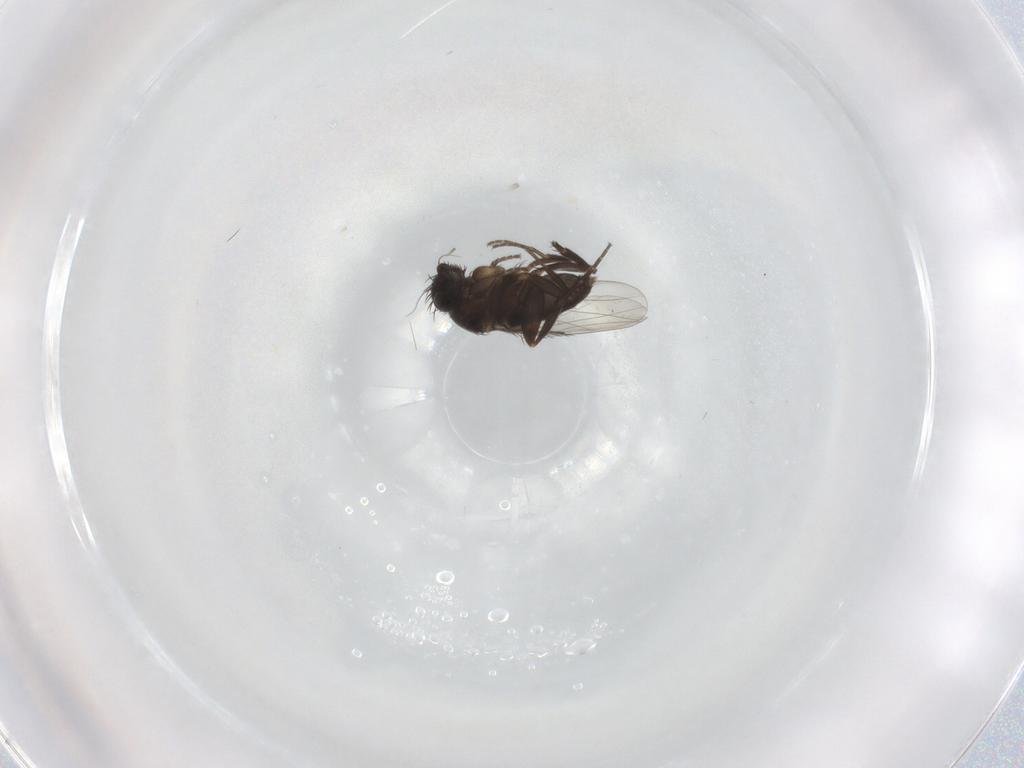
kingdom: Animalia
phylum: Arthropoda
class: Insecta
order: Diptera
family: Phoridae
